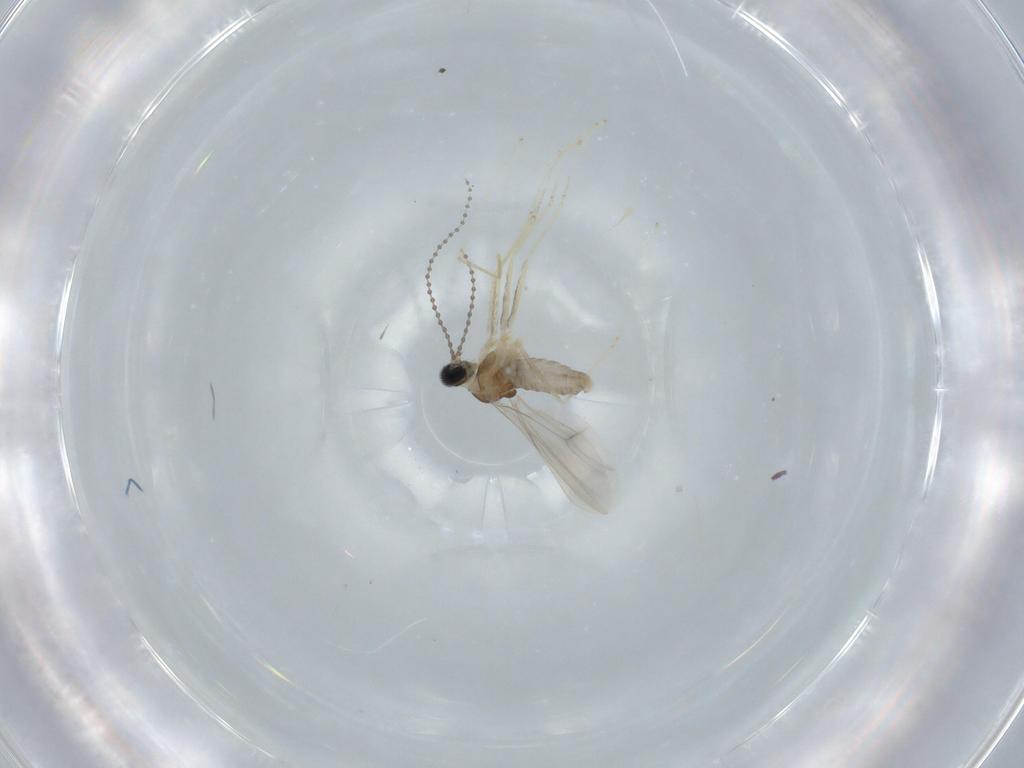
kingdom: Animalia
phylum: Arthropoda
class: Insecta
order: Diptera
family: Cecidomyiidae
